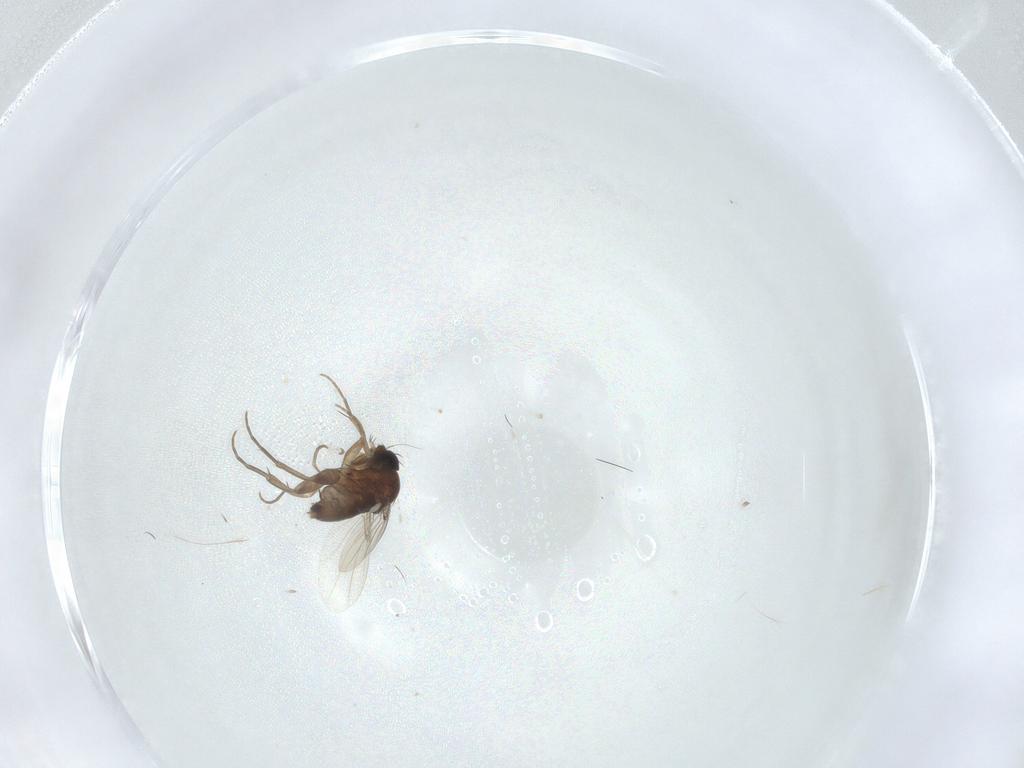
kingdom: Animalia
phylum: Arthropoda
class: Insecta
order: Diptera
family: Phoridae
